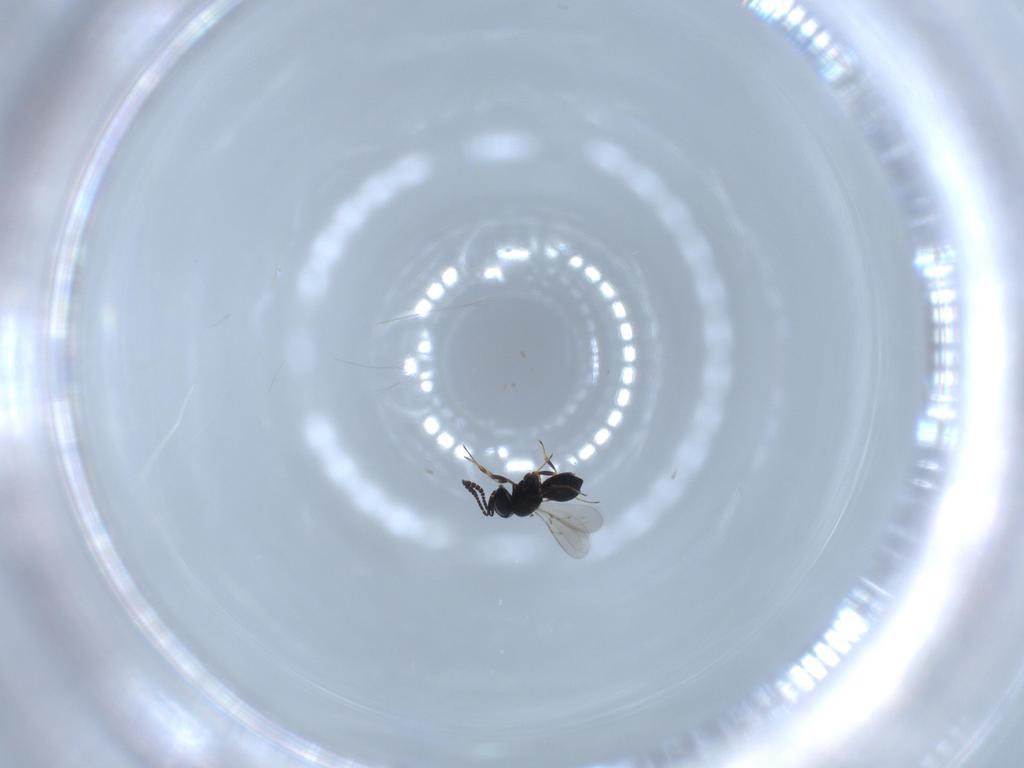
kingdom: Animalia
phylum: Arthropoda
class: Insecta
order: Hymenoptera
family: Scelionidae
